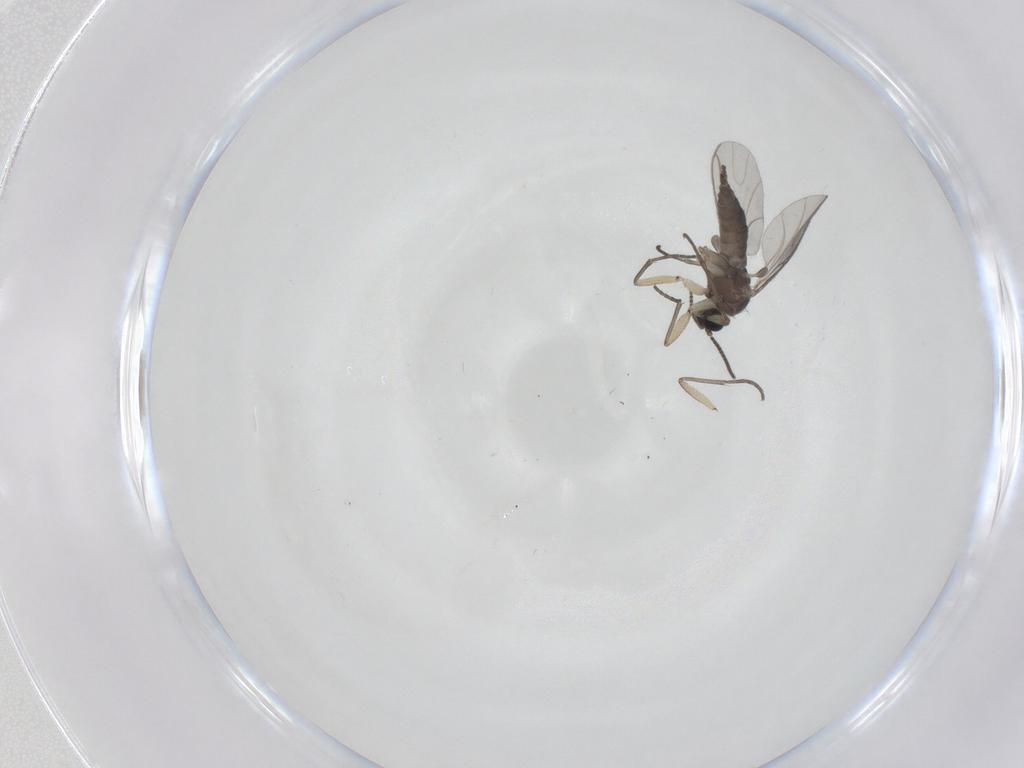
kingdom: Animalia
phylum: Arthropoda
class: Insecta
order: Diptera
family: Sciaridae
